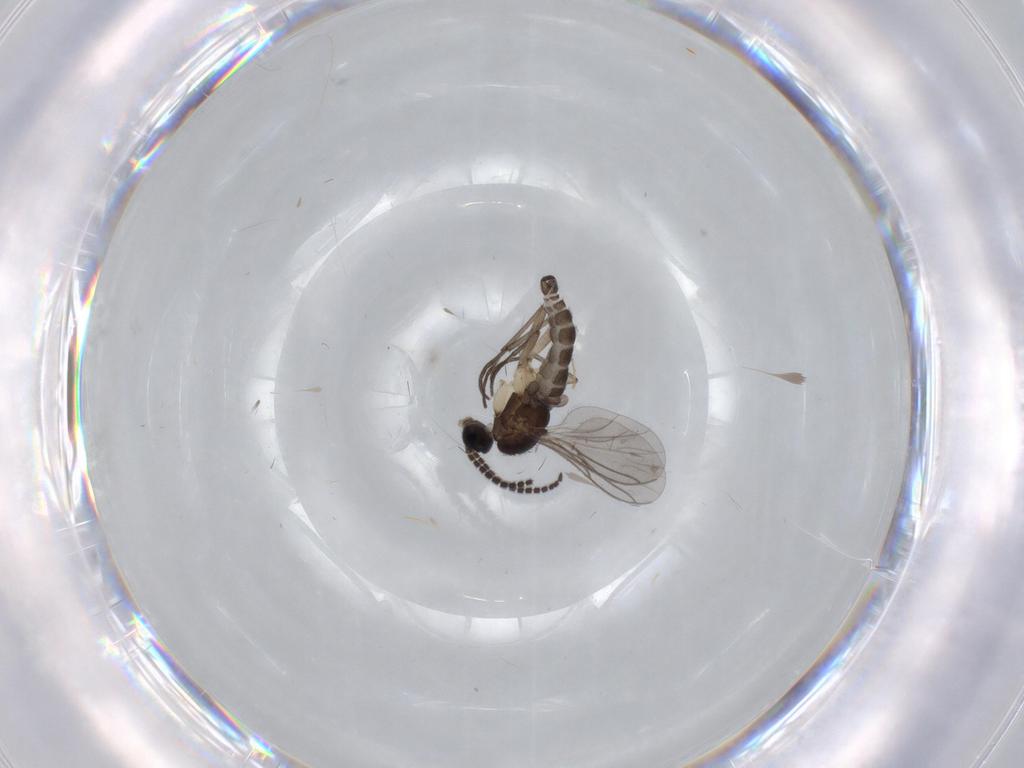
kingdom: Animalia
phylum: Arthropoda
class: Insecta
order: Diptera
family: Sciaridae
